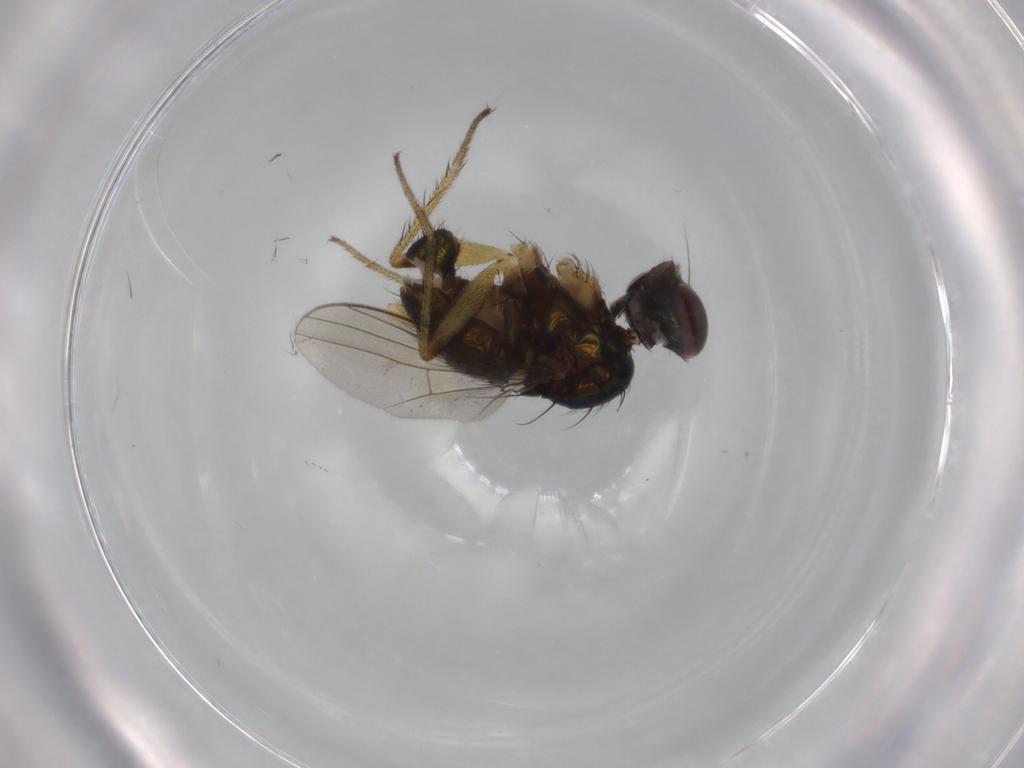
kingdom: Animalia
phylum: Arthropoda
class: Insecta
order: Diptera
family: Dolichopodidae
